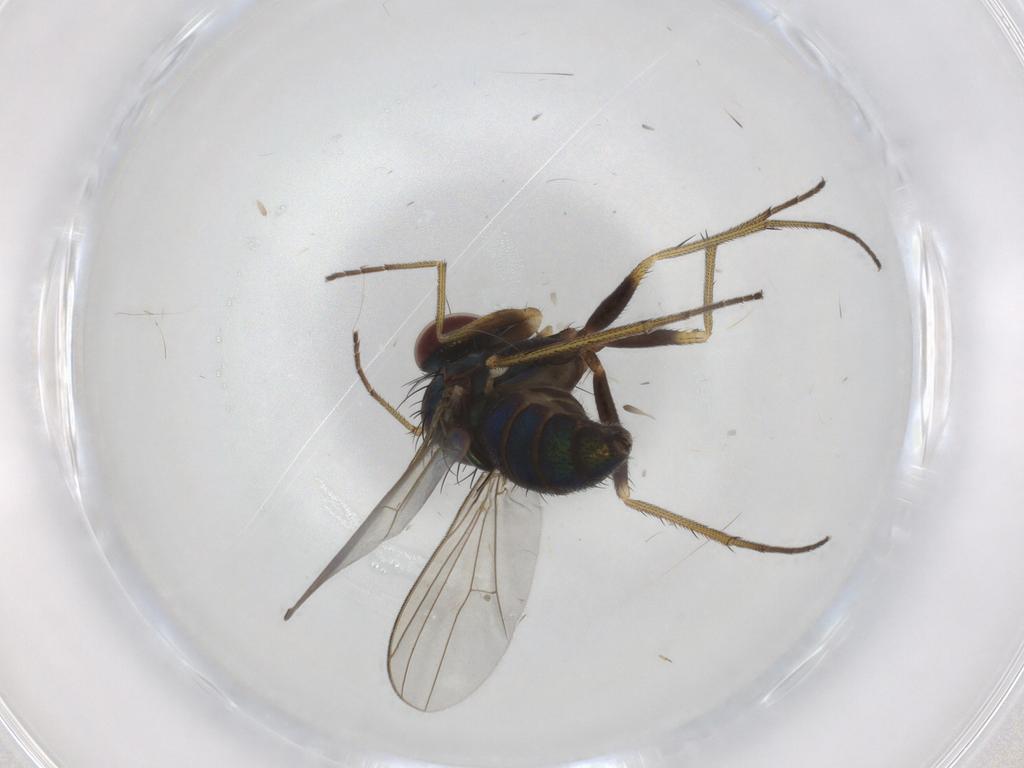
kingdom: Animalia
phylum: Arthropoda
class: Insecta
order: Diptera
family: Dolichopodidae
